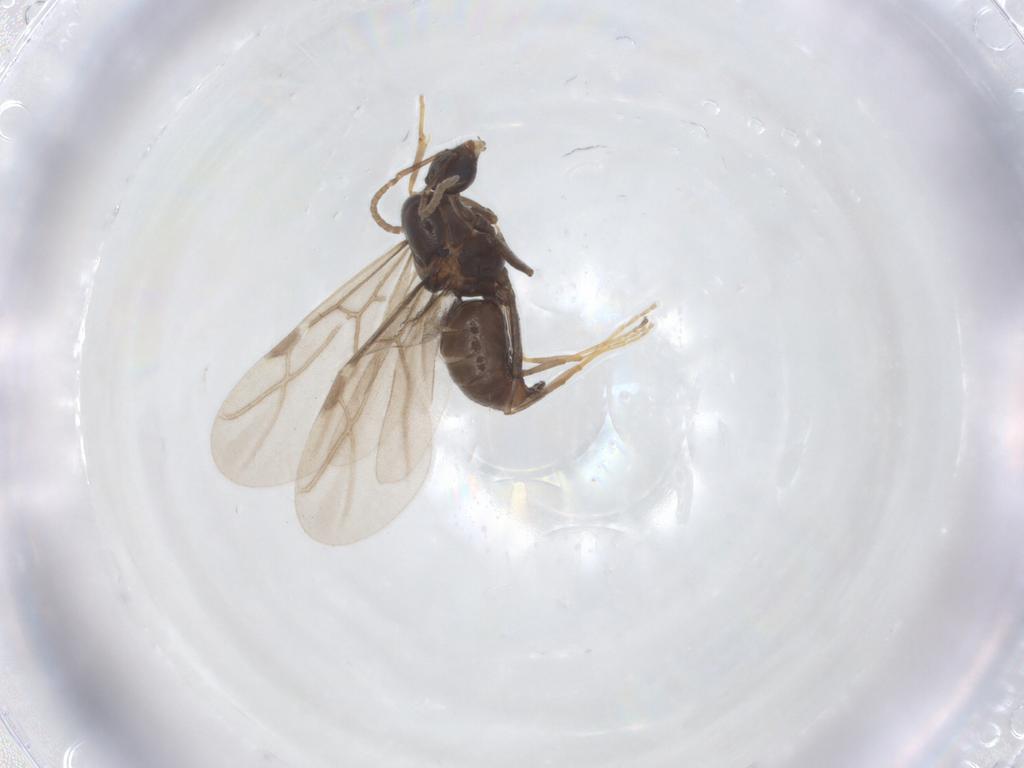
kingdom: Animalia
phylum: Arthropoda
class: Insecta
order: Hymenoptera
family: Formicidae
